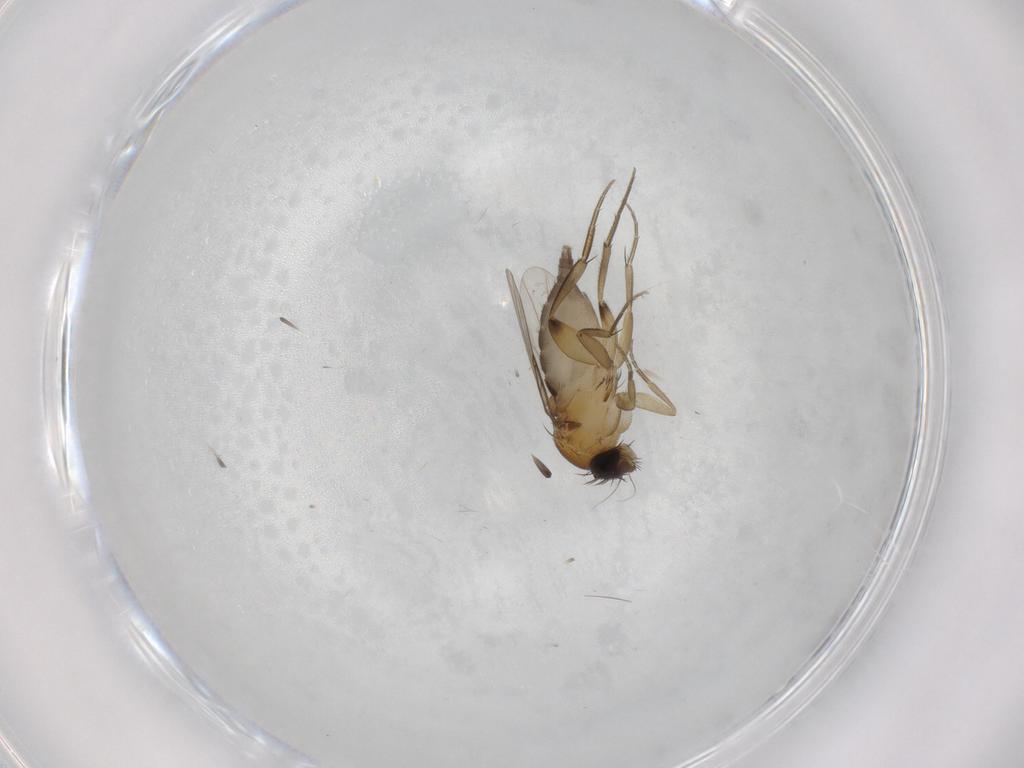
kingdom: Animalia
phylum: Arthropoda
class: Insecta
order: Diptera
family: Phoridae
